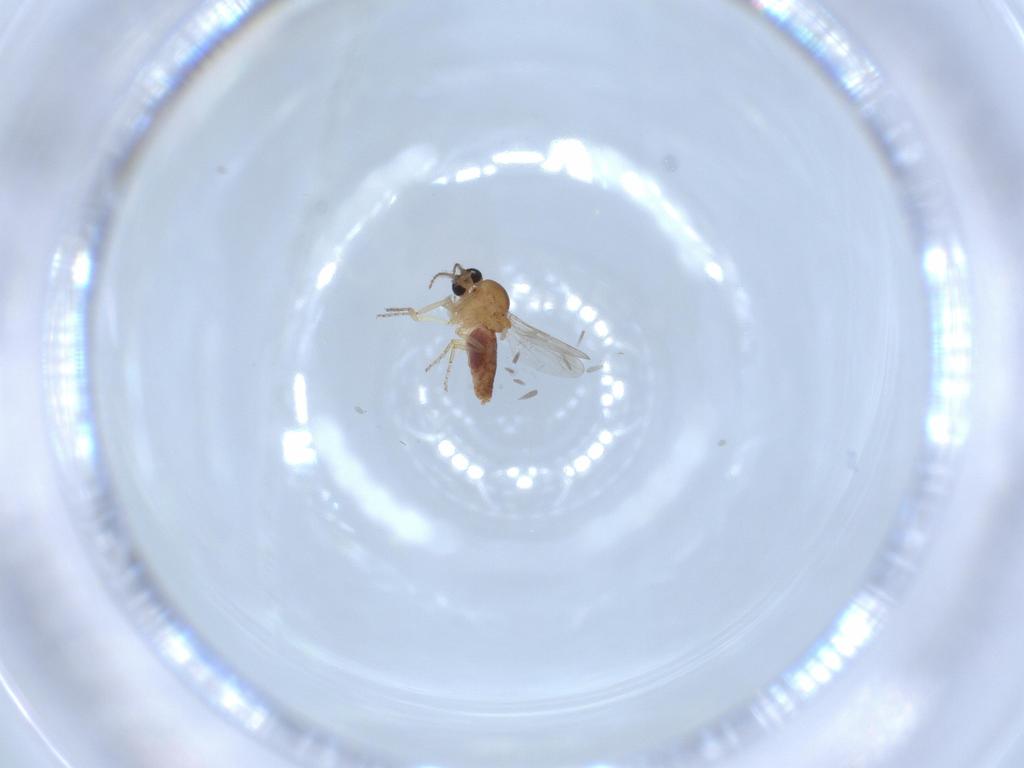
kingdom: Animalia
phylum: Arthropoda
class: Insecta
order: Diptera
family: Ceratopogonidae
